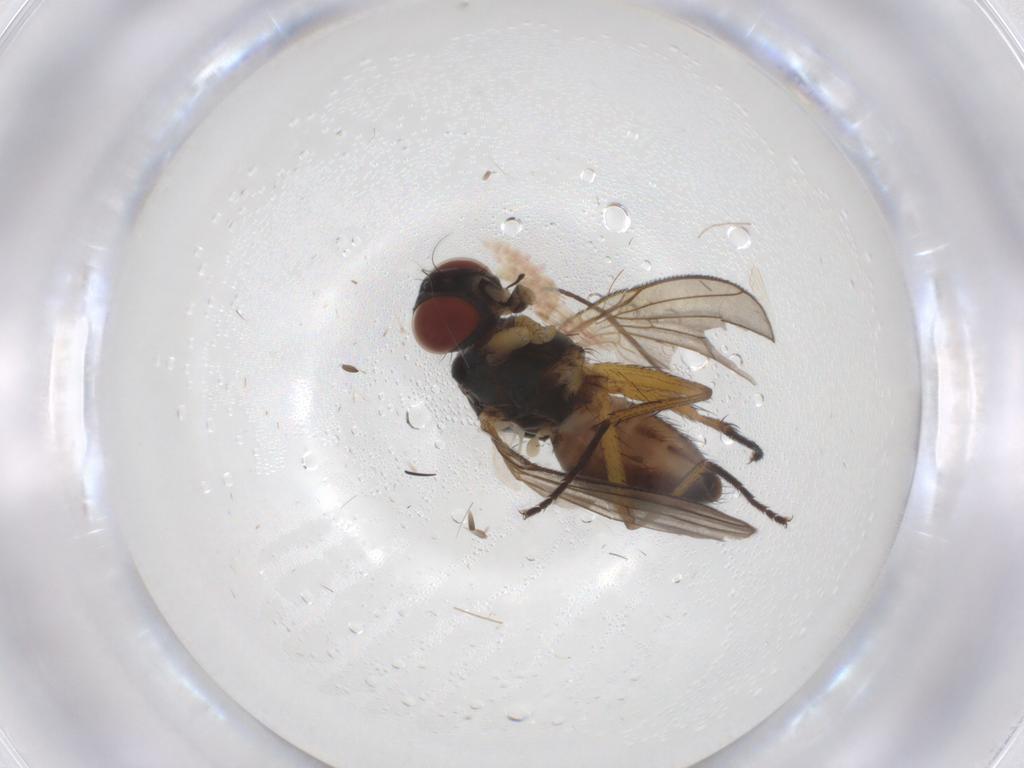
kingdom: Animalia
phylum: Arthropoda
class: Insecta
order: Diptera
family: Muscidae
